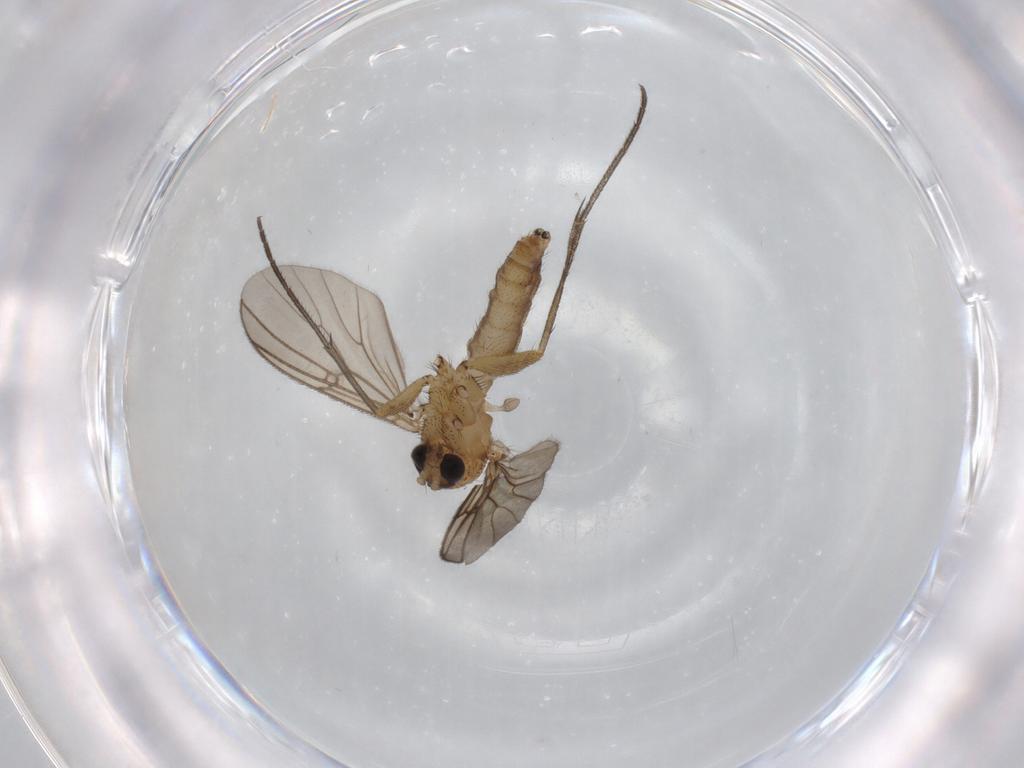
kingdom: Animalia
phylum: Arthropoda
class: Insecta
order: Diptera
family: Mycetophilidae
